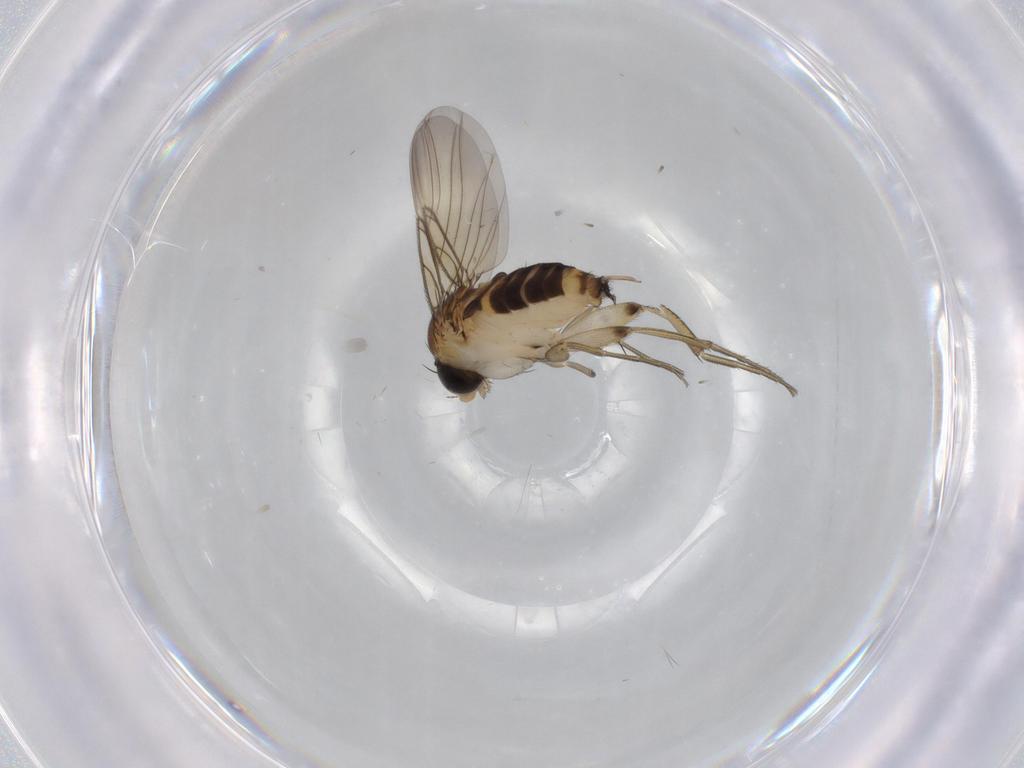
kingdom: Animalia
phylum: Arthropoda
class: Insecta
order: Diptera
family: Phoridae
